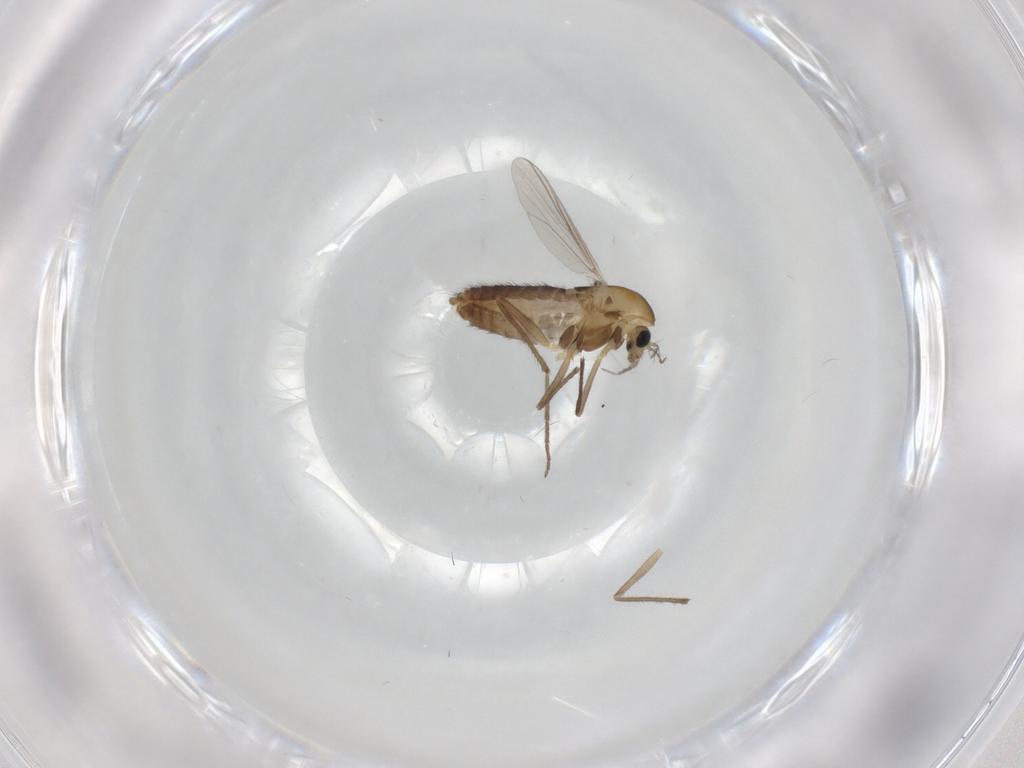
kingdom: Animalia
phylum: Arthropoda
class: Insecta
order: Diptera
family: Chironomidae
